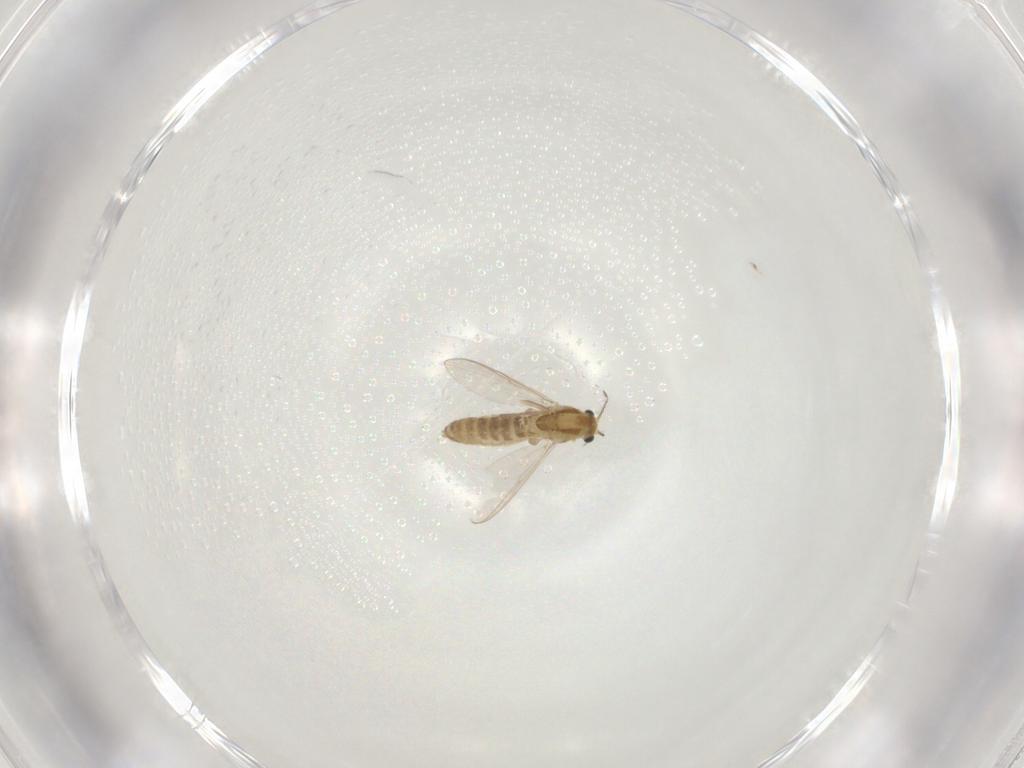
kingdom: Animalia
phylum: Arthropoda
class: Insecta
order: Diptera
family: Chironomidae
